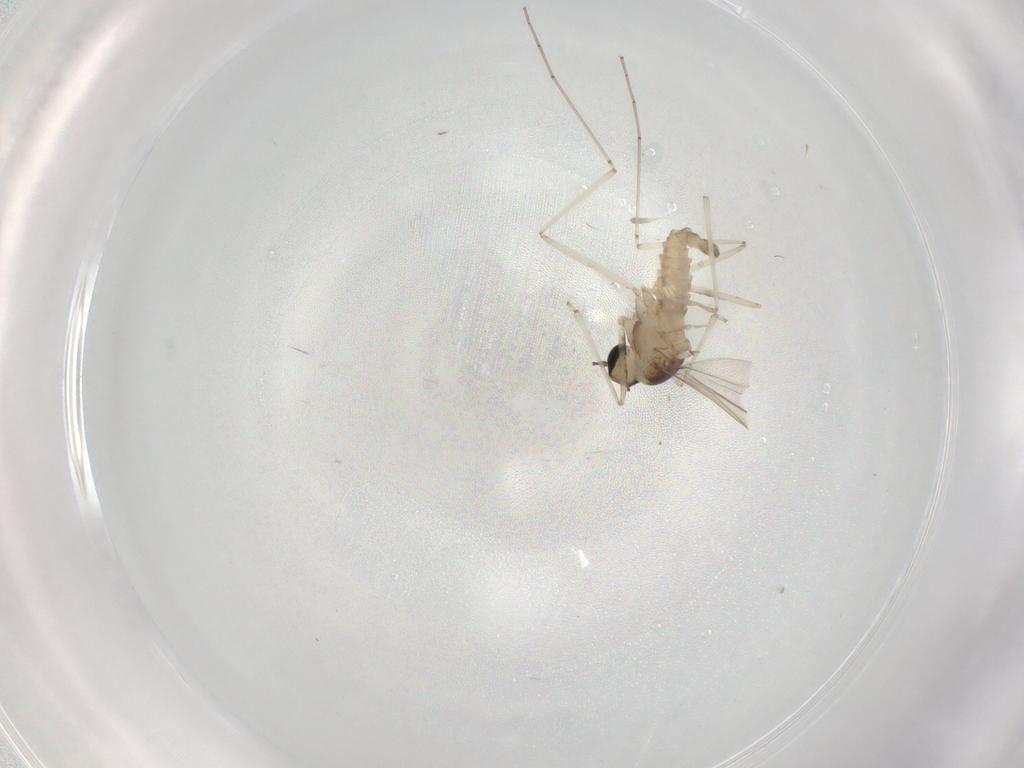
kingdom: Animalia
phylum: Arthropoda
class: Insecta
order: Diptera
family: Cecidomyiidae
